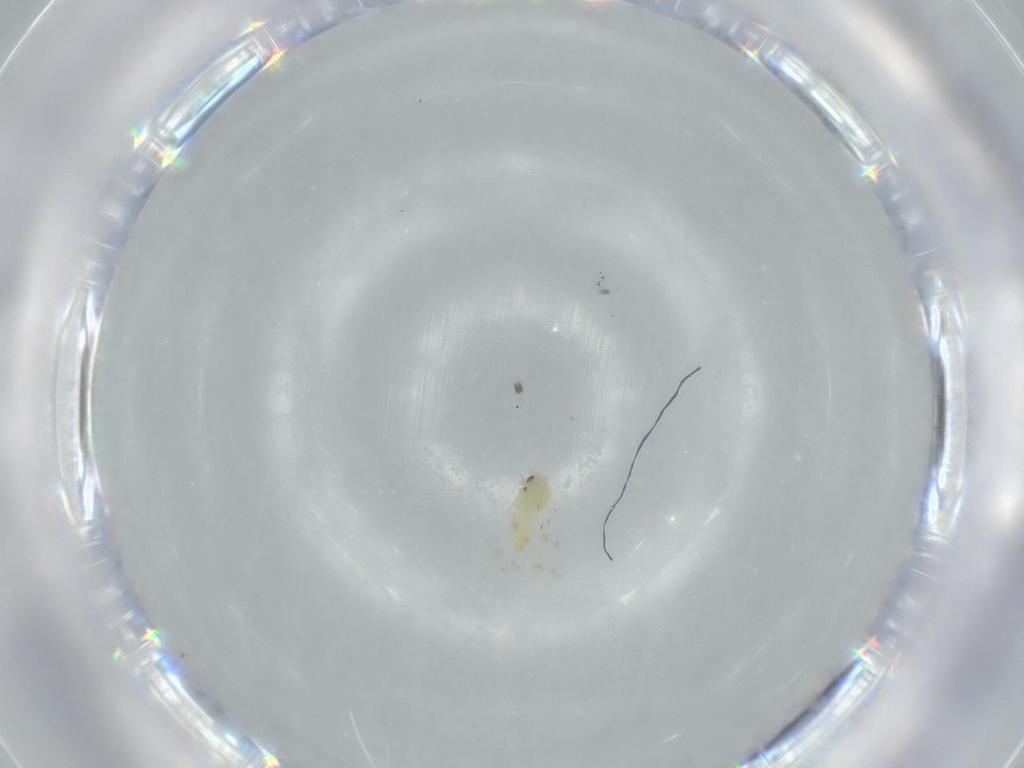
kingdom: Animalia
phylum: Arthropoda
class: Insecta
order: Hemiptera
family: Aleyrodidae
